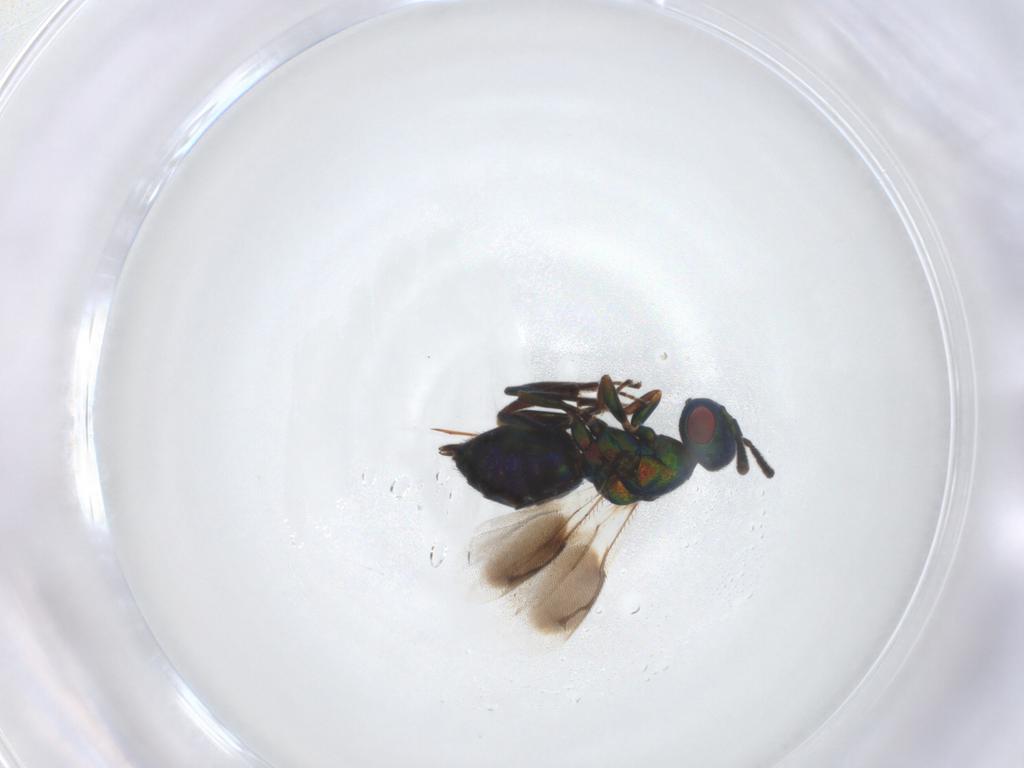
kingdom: Animalia
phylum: Arthropoda
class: Insecta
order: Hymenoptera
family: Pteromalidae
